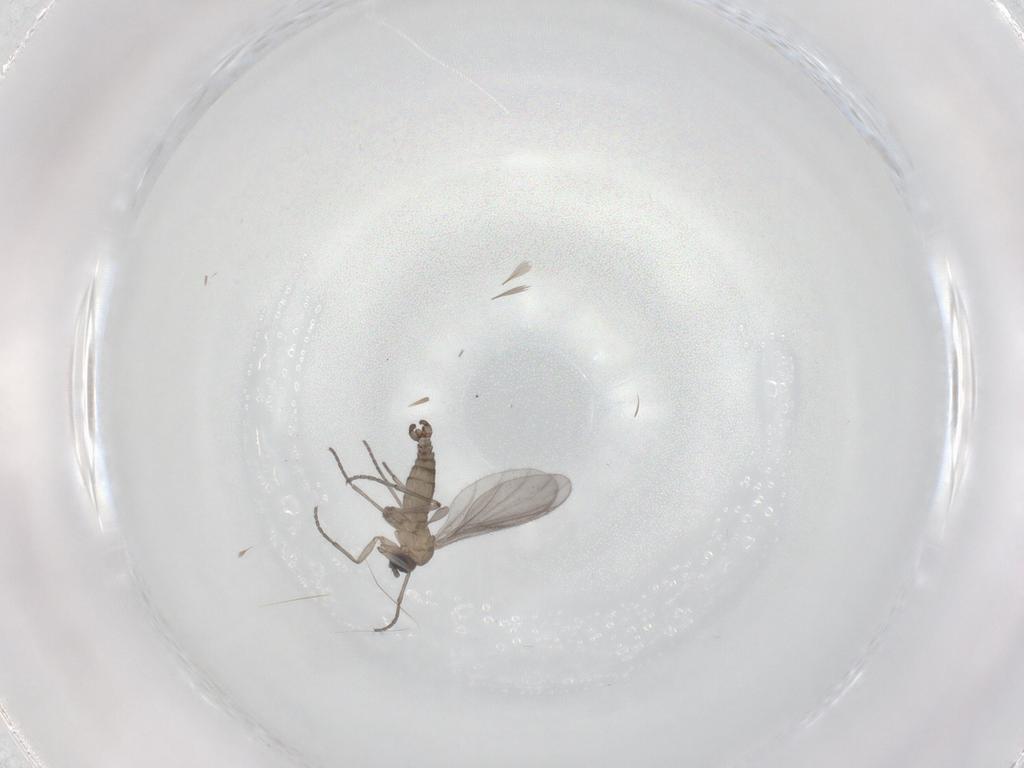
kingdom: Animalia
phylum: Arthropoda
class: Insecta
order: Diptera
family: Sciaridae
